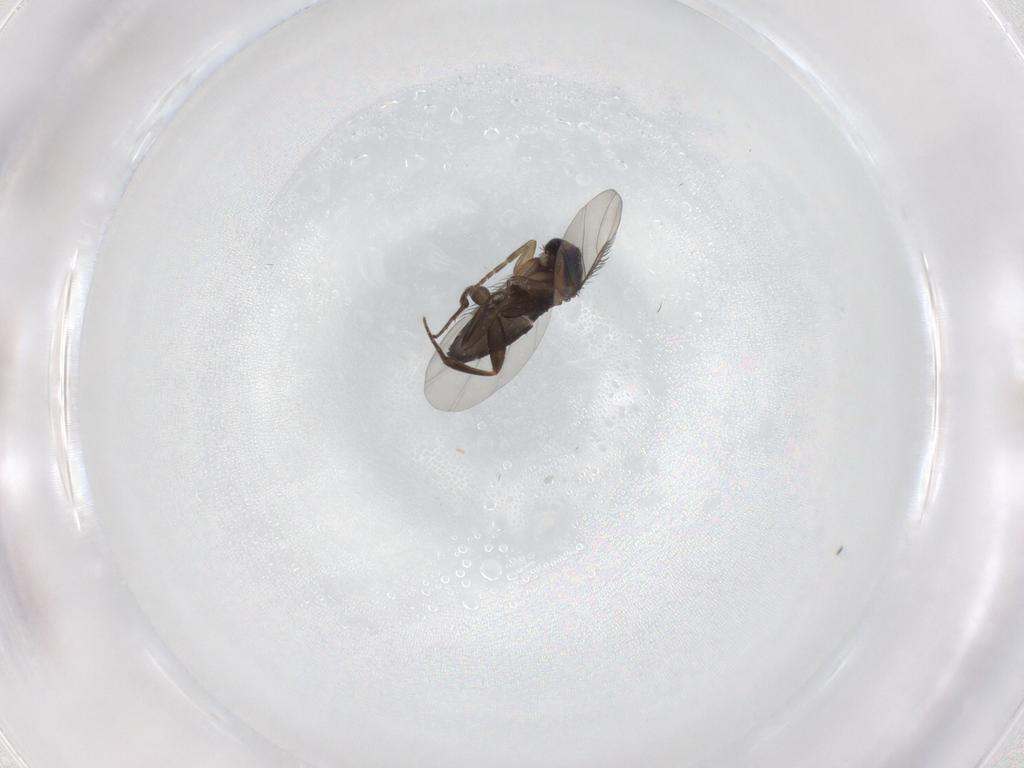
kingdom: Animalia
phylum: Arthropoda
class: Insecta
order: Diptera
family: Phoridae
